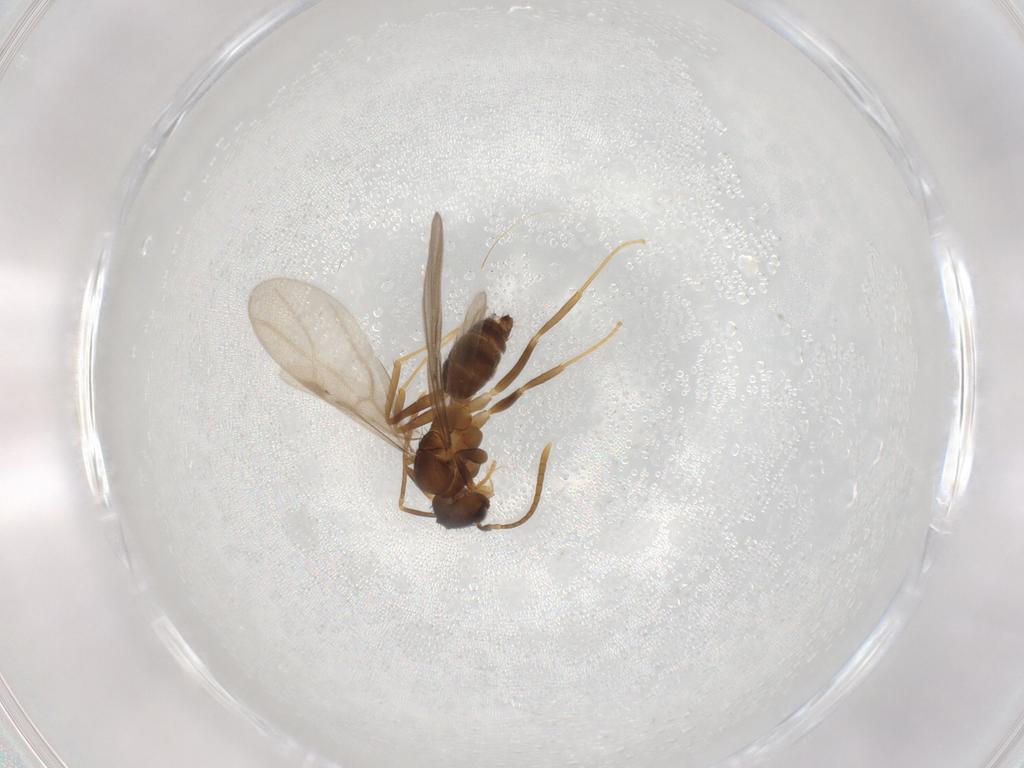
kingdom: Animalia
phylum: Arthropoda
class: Insecta
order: Hymenoptera
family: Formicidae
